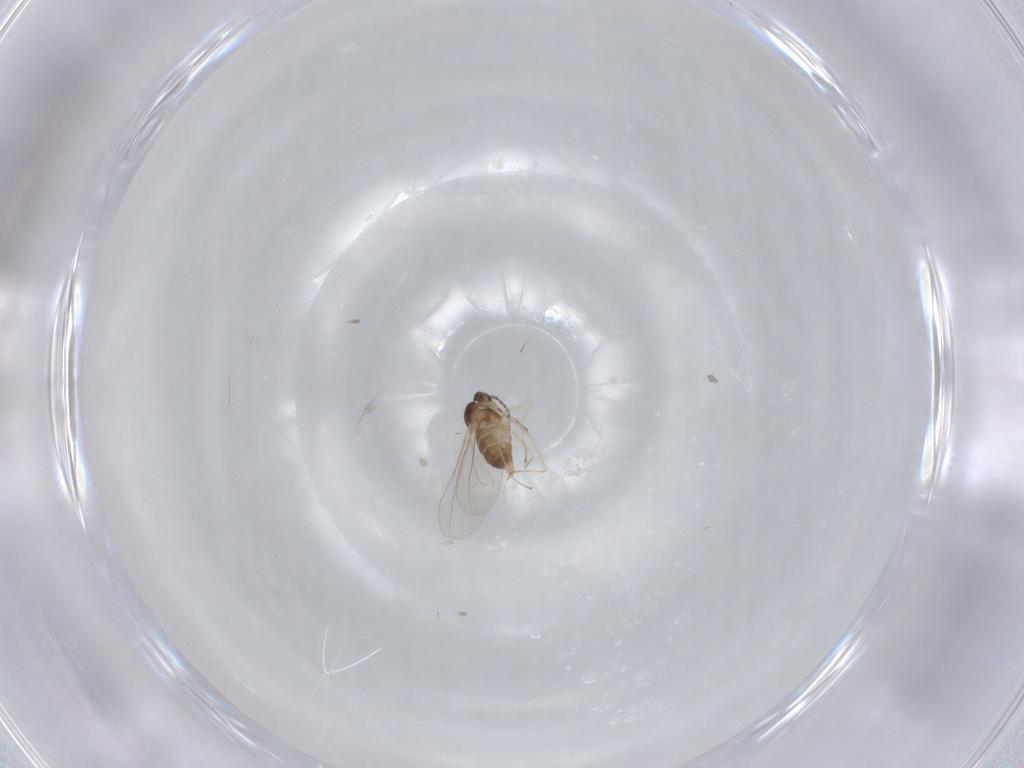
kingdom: Animalia
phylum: Arthropoda
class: Insecta
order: Diptera
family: Cecidomyiidae
